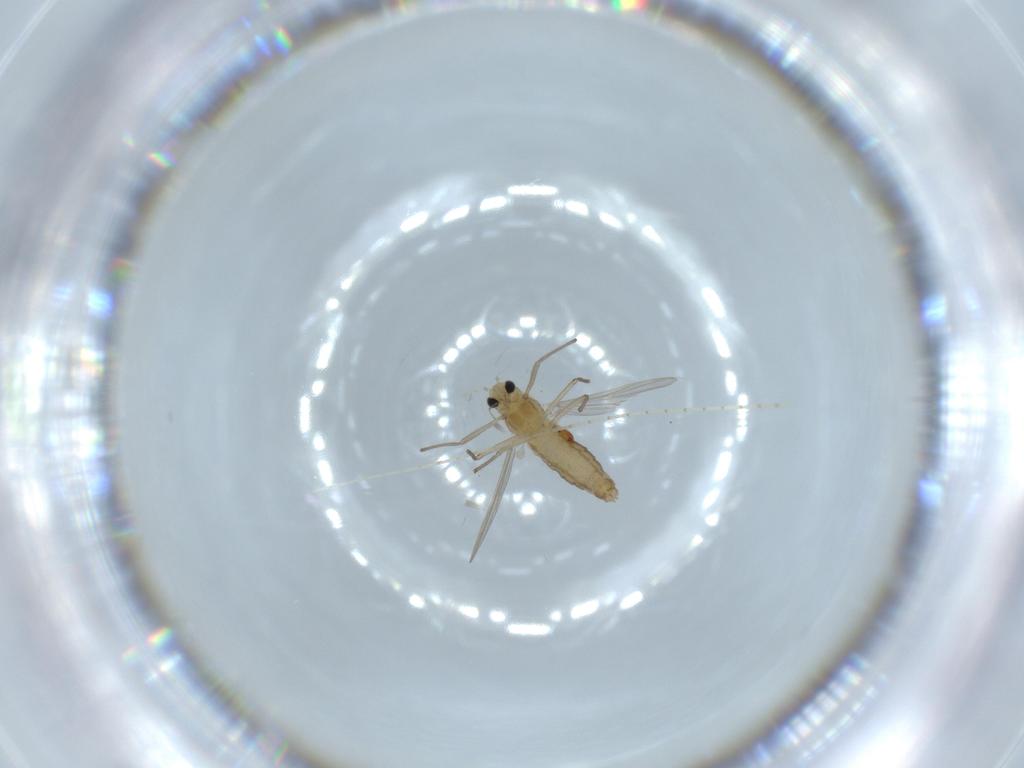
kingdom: Animalia
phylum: Arthropoda
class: Insecta
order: Diptera
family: Chironomidae
